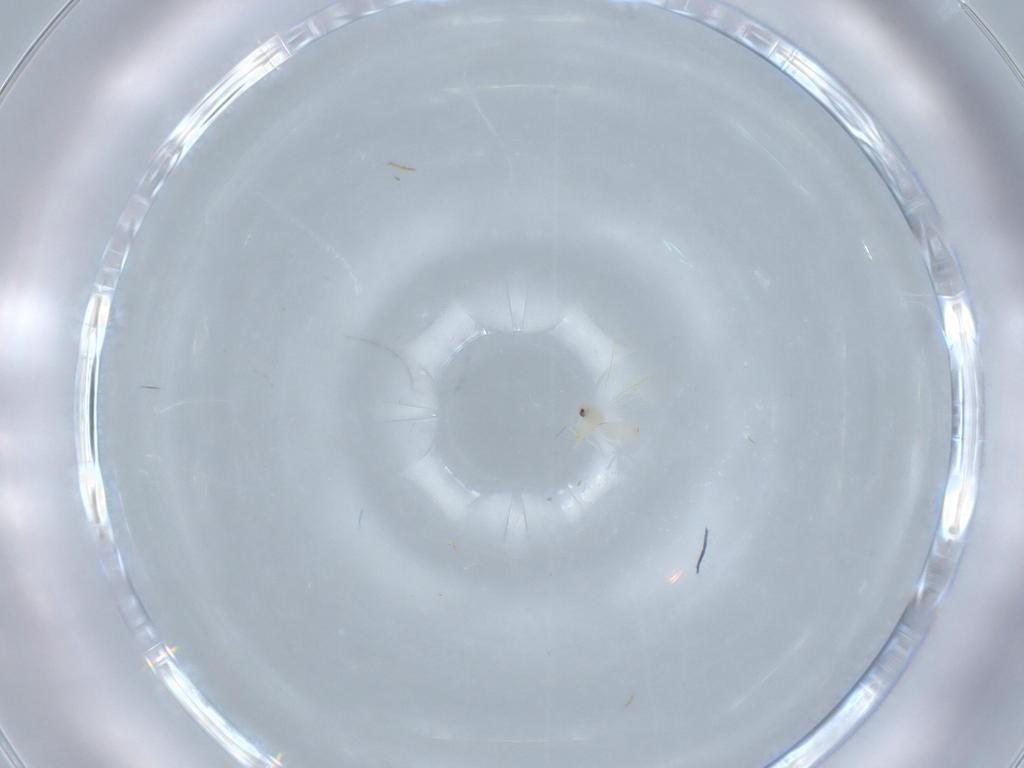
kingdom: Animalia
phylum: Arthropoda
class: Insecta
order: Hemiptera
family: Aleyrodidae
